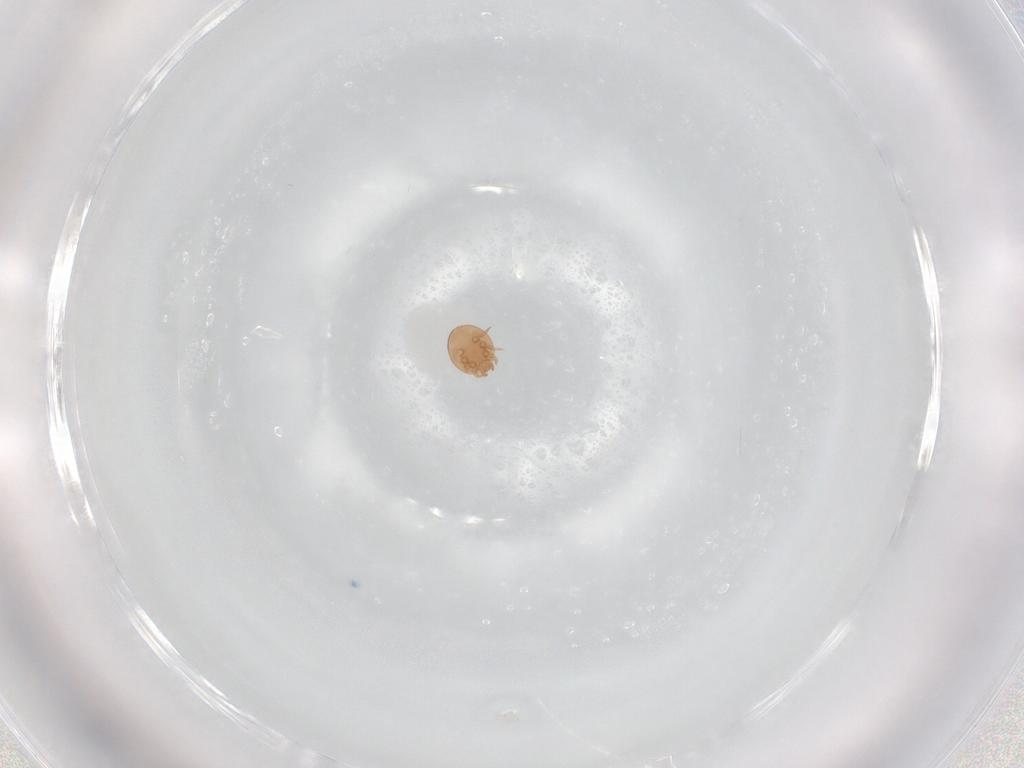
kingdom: Animalia
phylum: Arthropoda
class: Arachnida
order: Mesostigmata
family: Trematuridae
